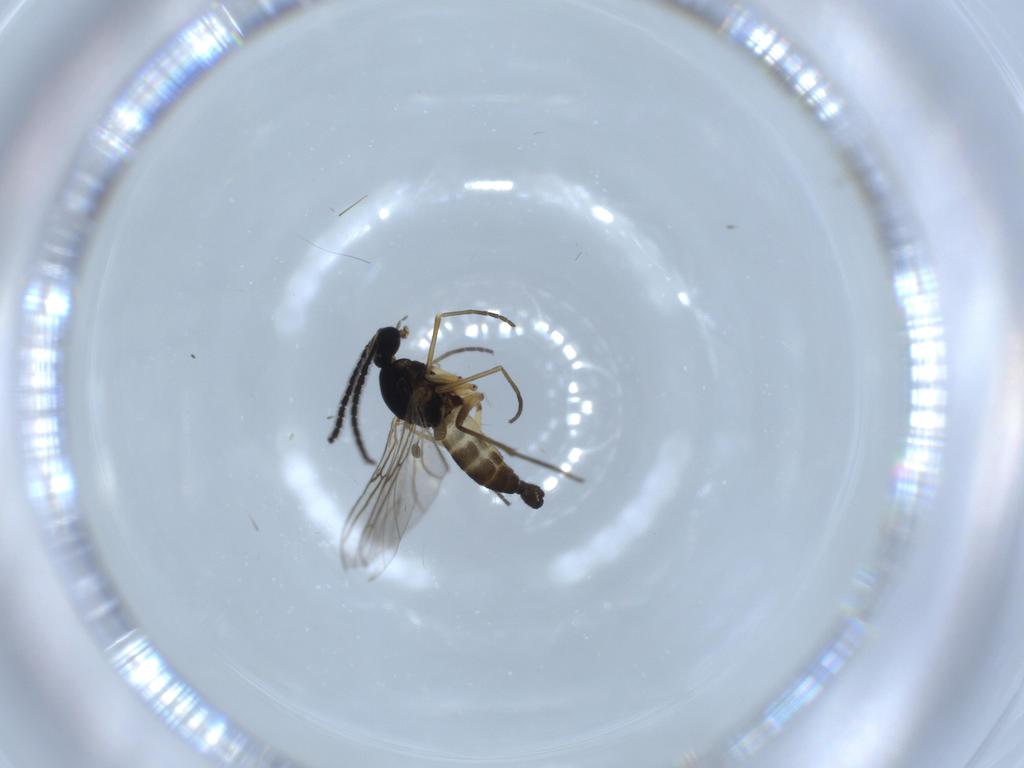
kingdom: Animalia
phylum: Arthropoda
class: Insecta
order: Diptera
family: Sciaridae
